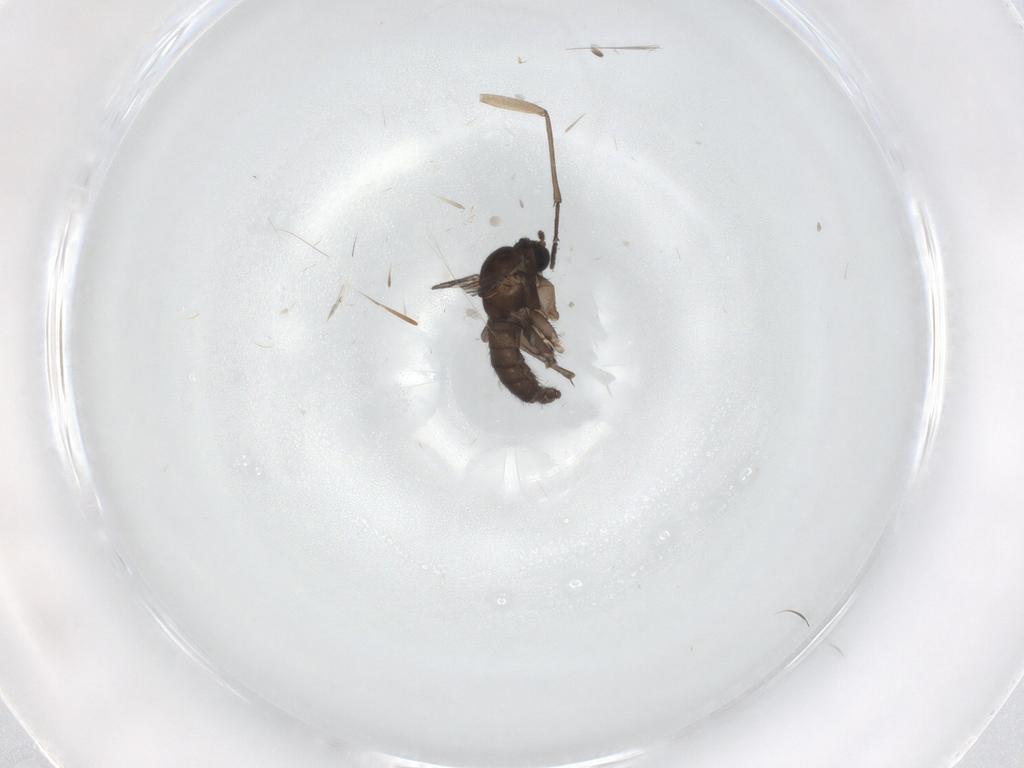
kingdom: Animalia
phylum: Arthropoda
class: Insecta
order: Diptera
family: Sciaridae
